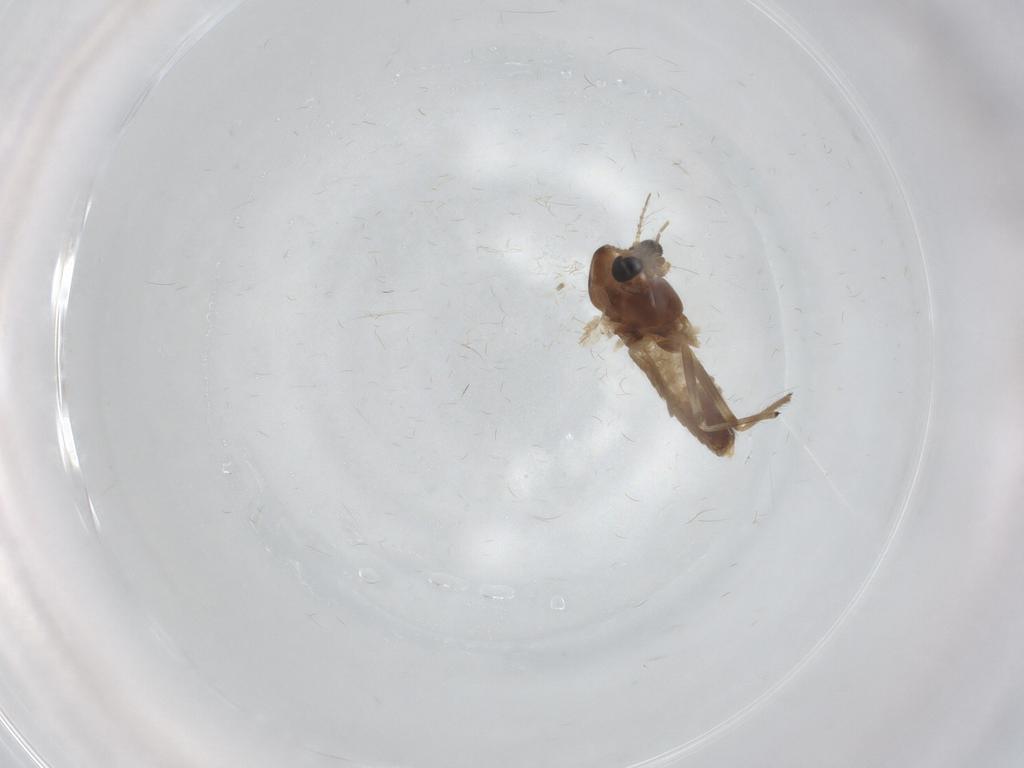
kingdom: Animalia
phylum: Arthropoda
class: Insecta
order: Diptera
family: Chironomidae
